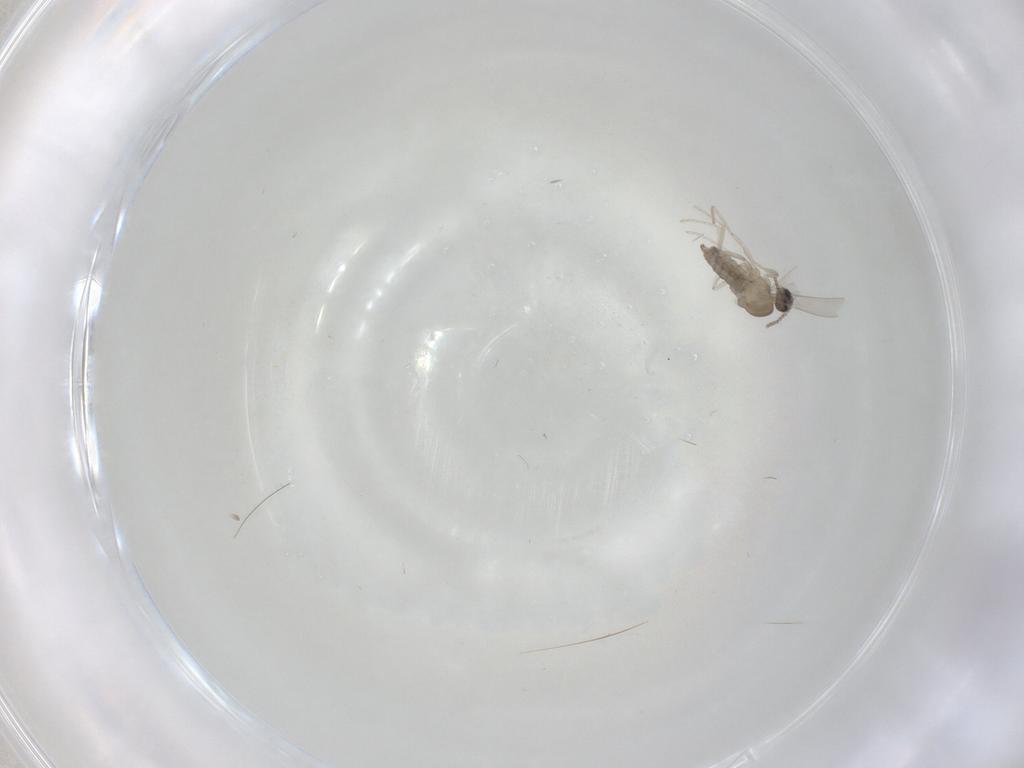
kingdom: Animalia
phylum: Arthropoda
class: Insecta
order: Diptera
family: Cecidomyiidae
